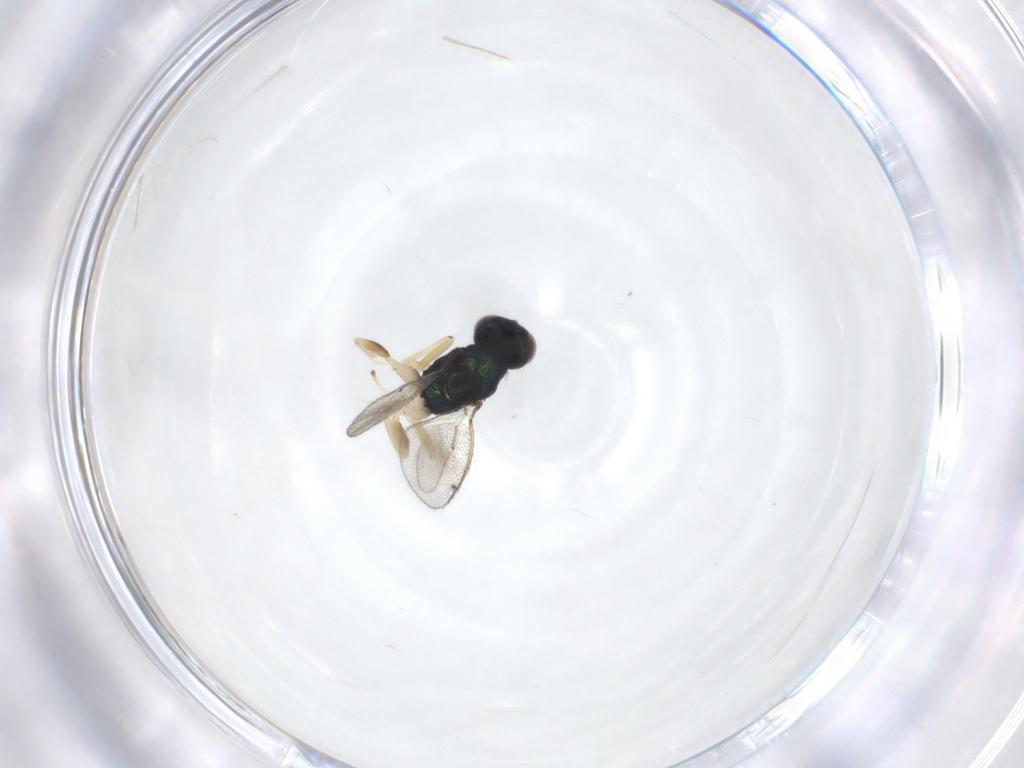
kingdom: Animalia
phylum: Arthropoda
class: Insecta
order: Hymenoptera
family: Eulophidae
